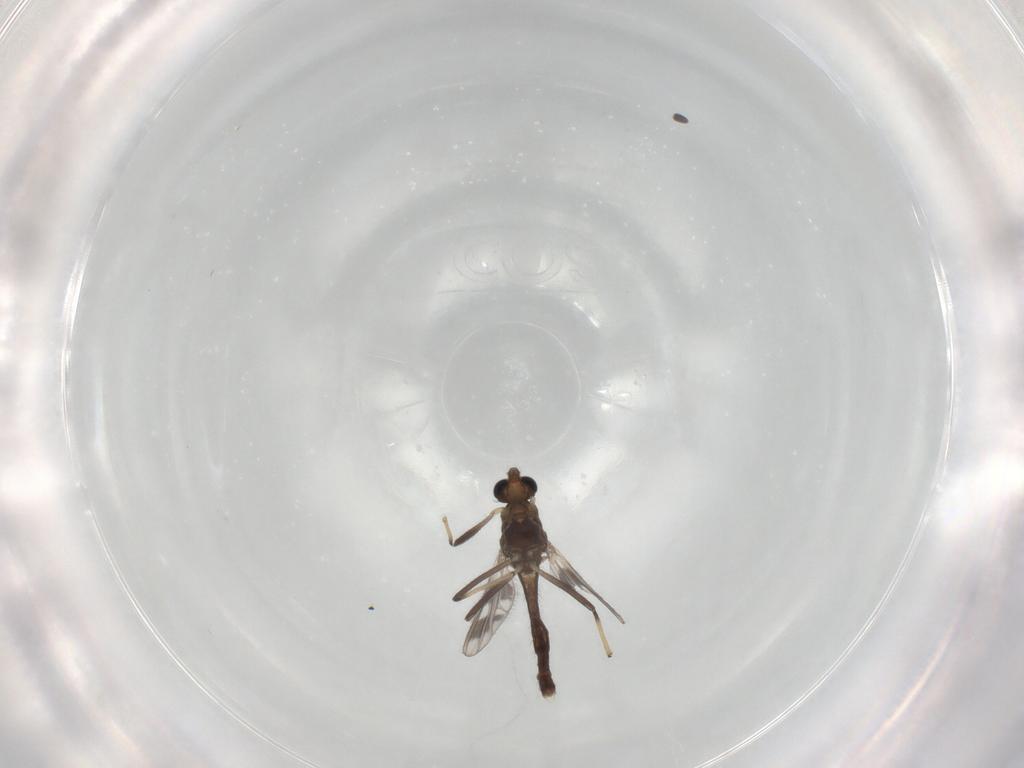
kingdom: Animalia
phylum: Arthropoda
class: Insecta
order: Diptera
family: Chironomidae
